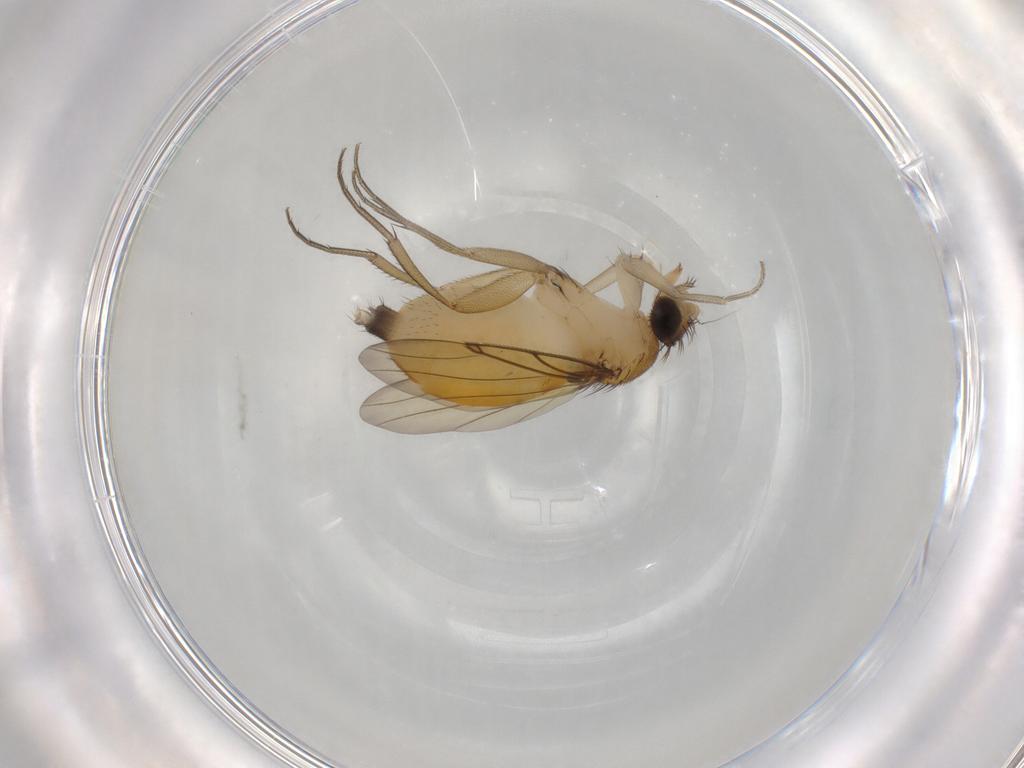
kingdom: Animalia
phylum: Arthropoda
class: Insecta
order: Diptera
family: Phoridae
